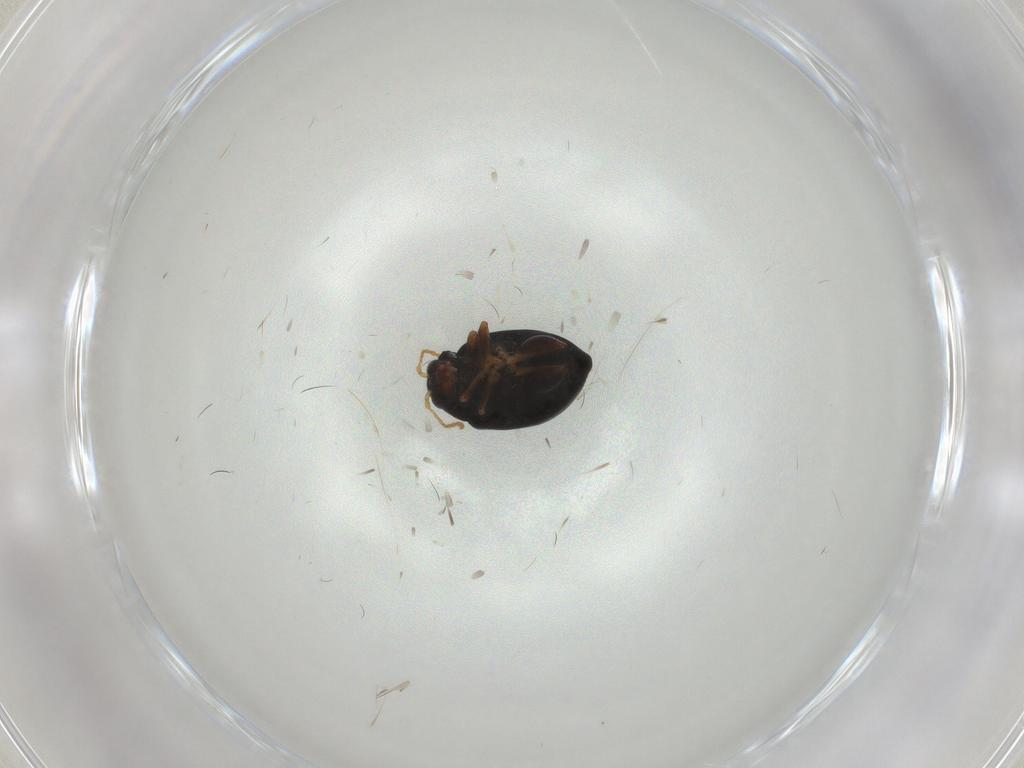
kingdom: Animalia
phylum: Arthropoda
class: Insecta
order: Coleoptera
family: Chrysomelidae
